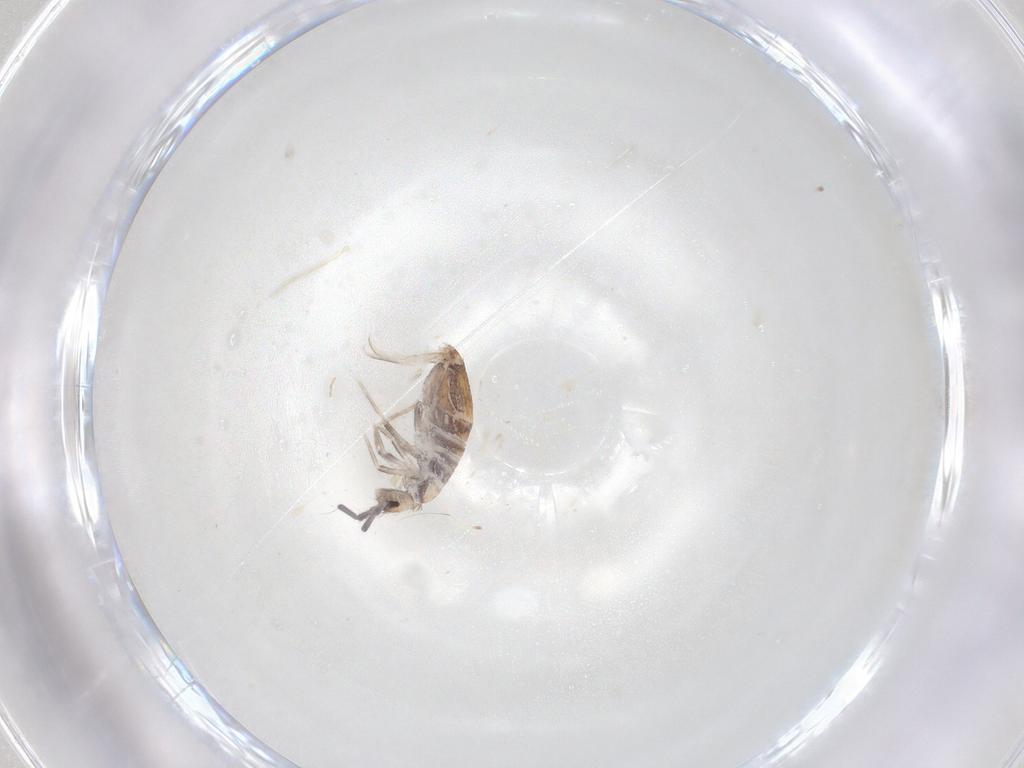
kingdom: Animalia
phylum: Arthropoda
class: Collembola
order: Poduromorpha
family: Hypogastruridae
